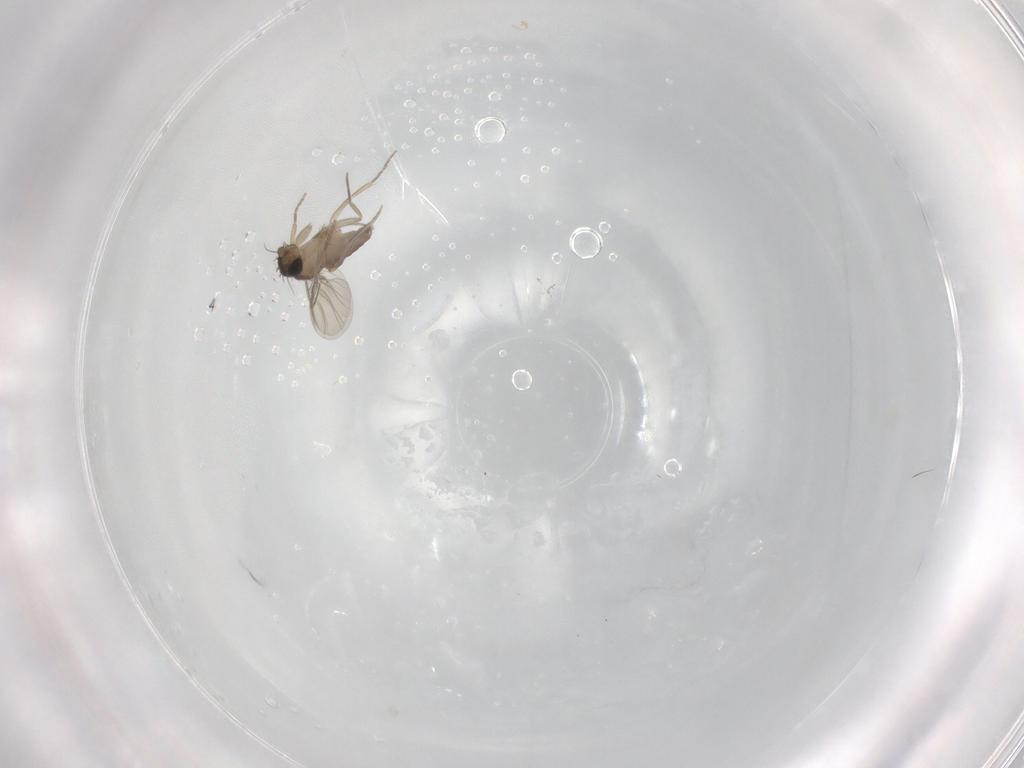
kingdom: Animalia
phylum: Arthropoda
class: Insecta
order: Diptera
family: Phoridae
